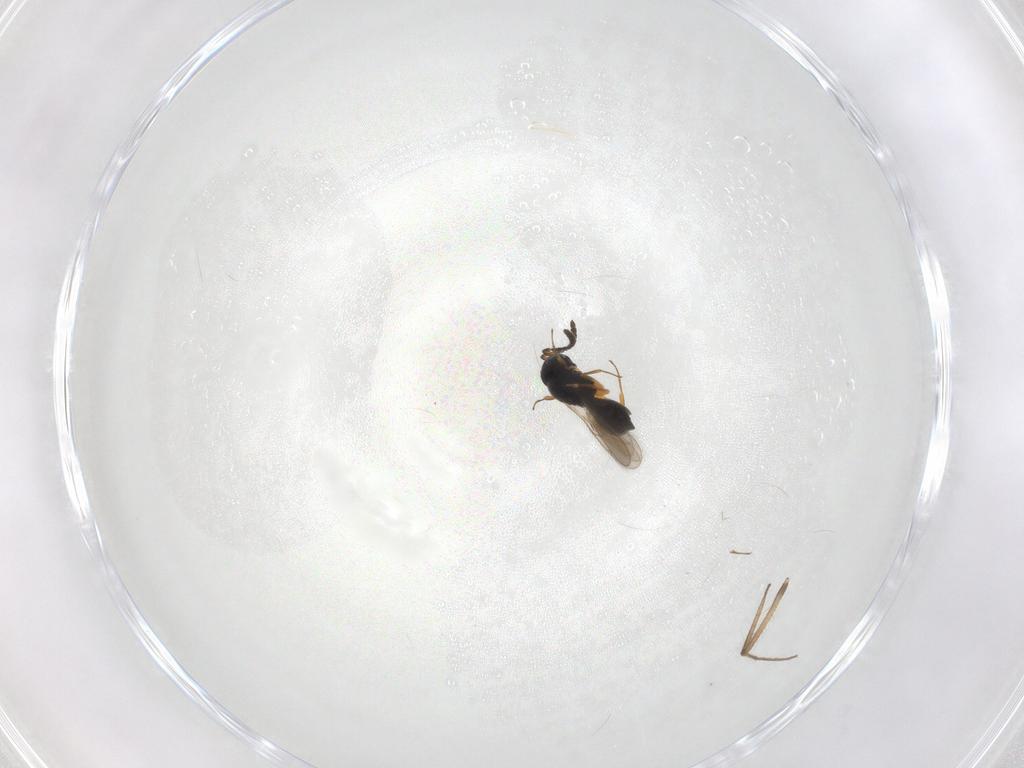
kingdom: Animalia
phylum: Arthropoda
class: Insecta
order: Hymenoptera
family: Scelionidae
